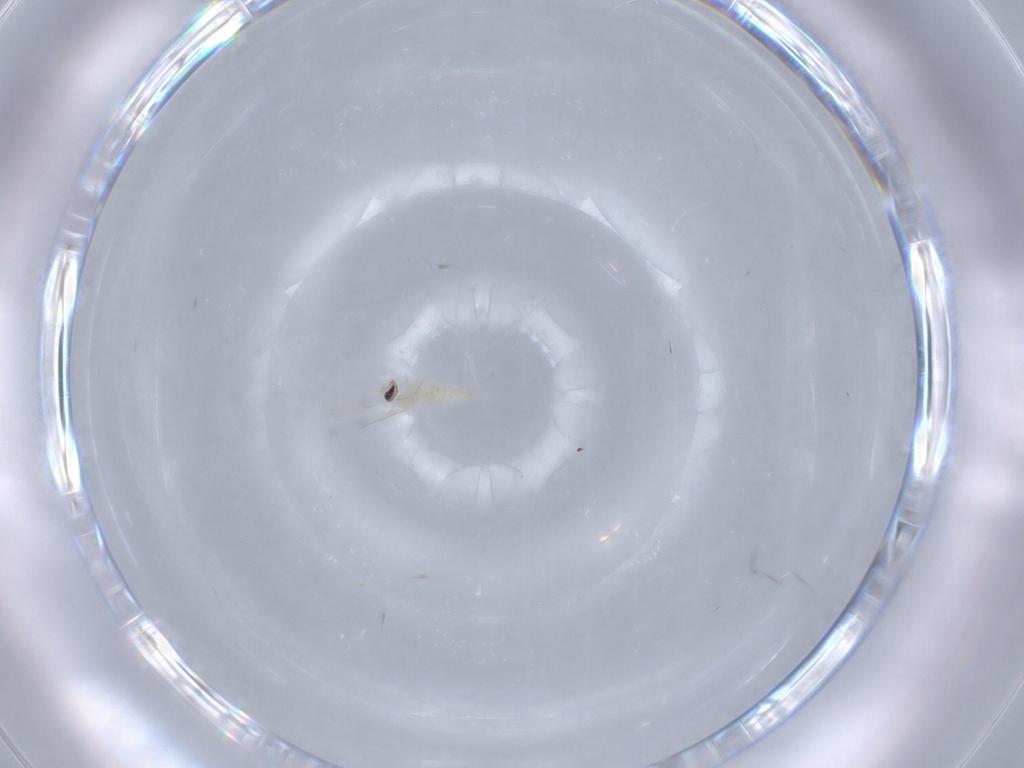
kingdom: Animalia
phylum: Arthropoda
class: Insecta
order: Diptera
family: Cecidomyiidae
